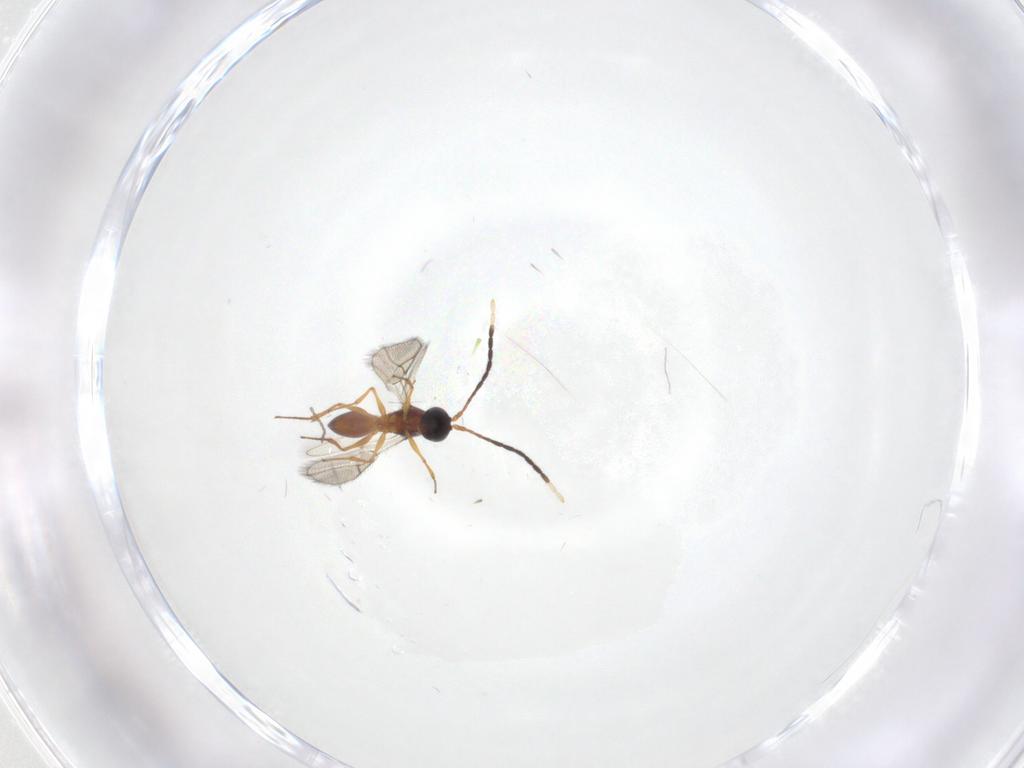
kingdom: Animalia
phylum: Arthropoda
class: Insecta
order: Hymenoptera
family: Figitidae
